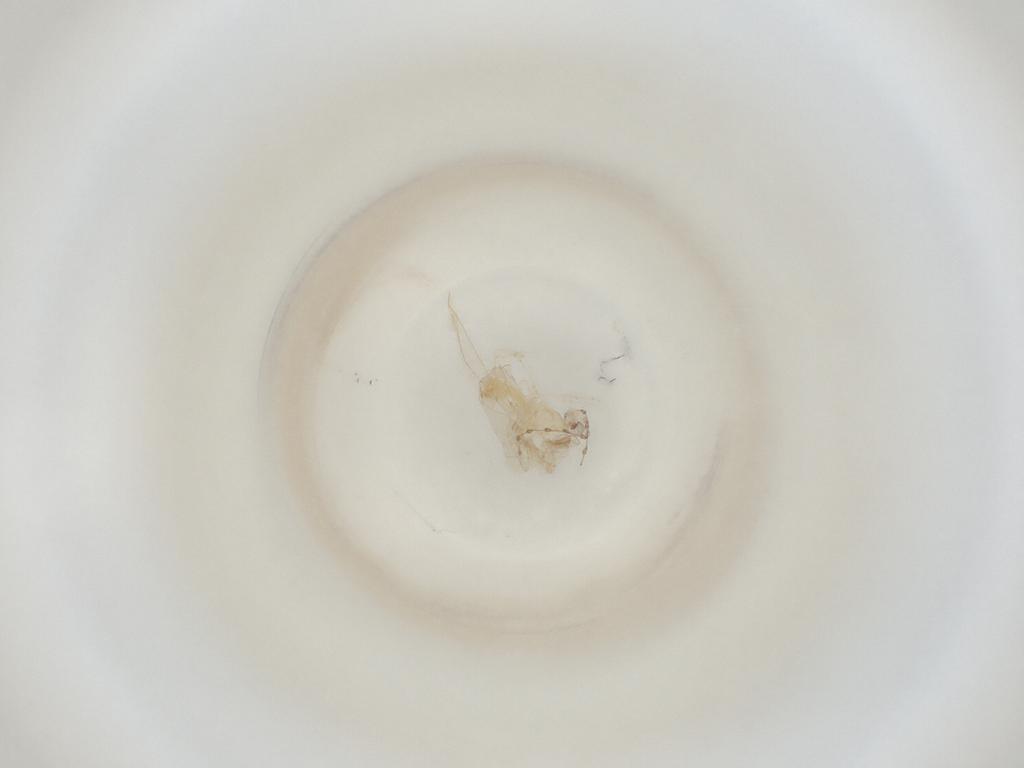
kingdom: Animalia
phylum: Arthropoda
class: Insecta
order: Diptera
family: Cecidomyiidae
